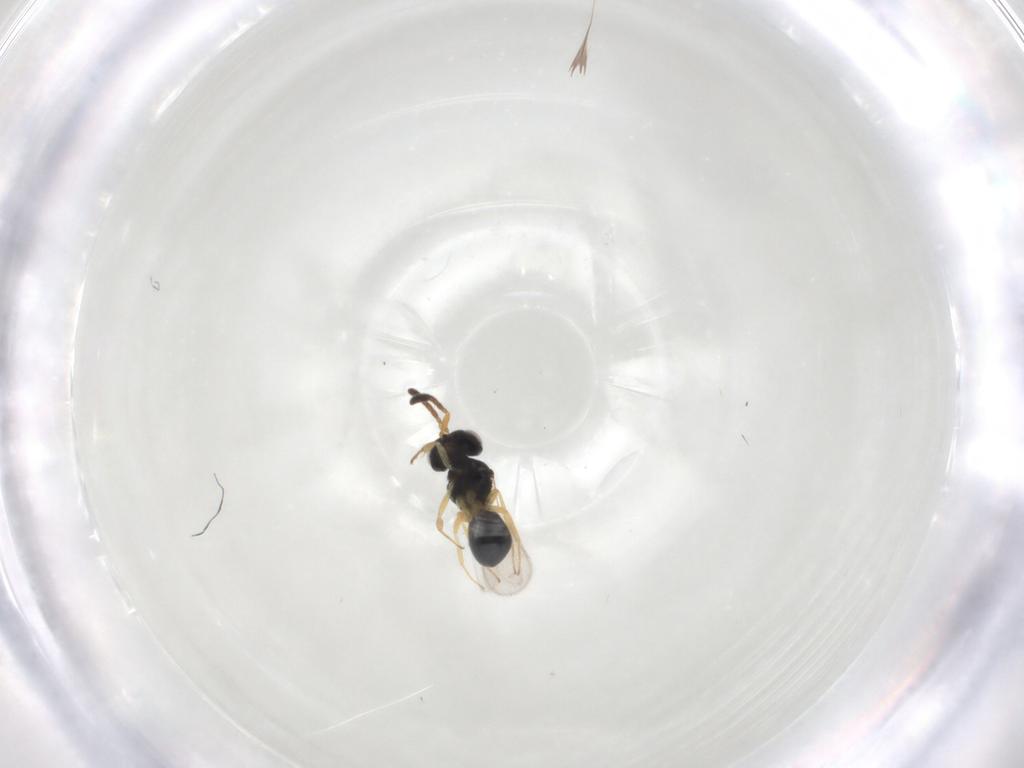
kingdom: Animalia
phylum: Arthropoda
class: Insecta
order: Hymenoptera
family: Scelionidae
